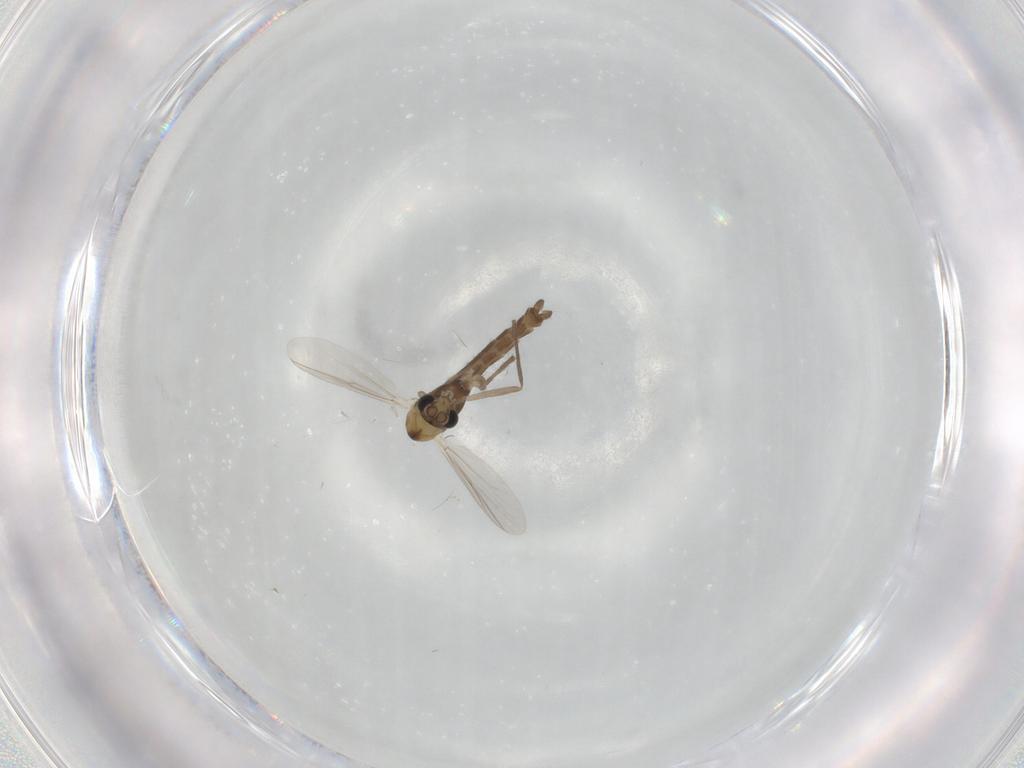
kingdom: Animalia
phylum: Arthropoda
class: Insecta
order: Diptera
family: Chironomidae
